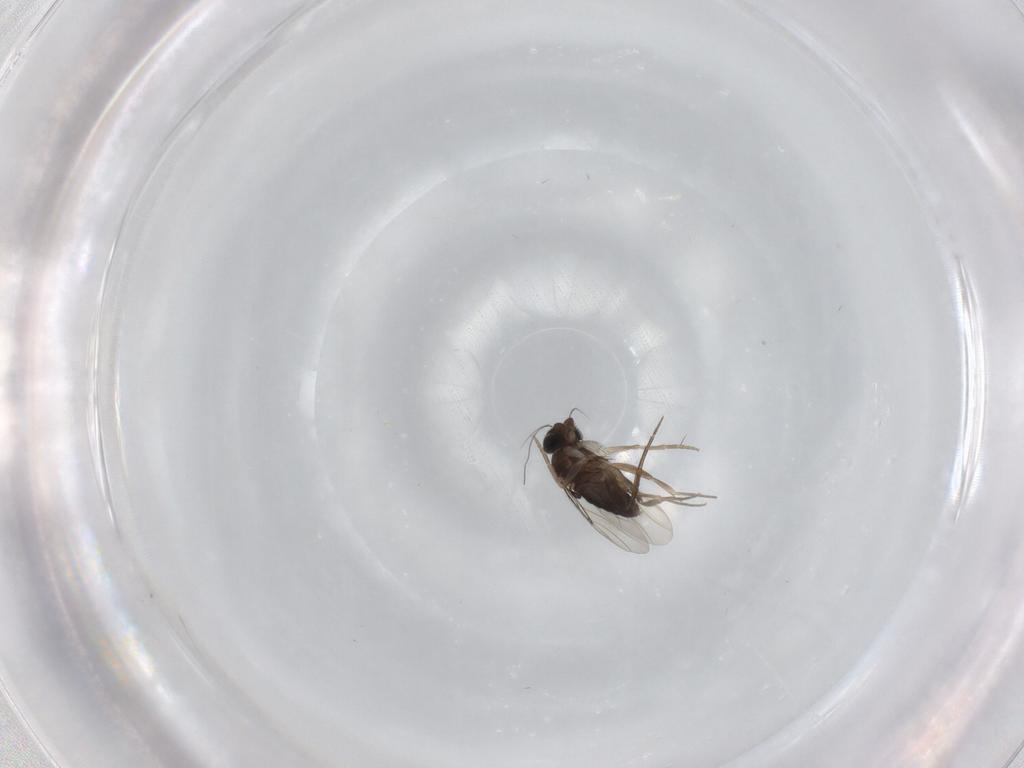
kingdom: Animalia
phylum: Arthropoda
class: Insecta
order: Diptera
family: Phoridae
